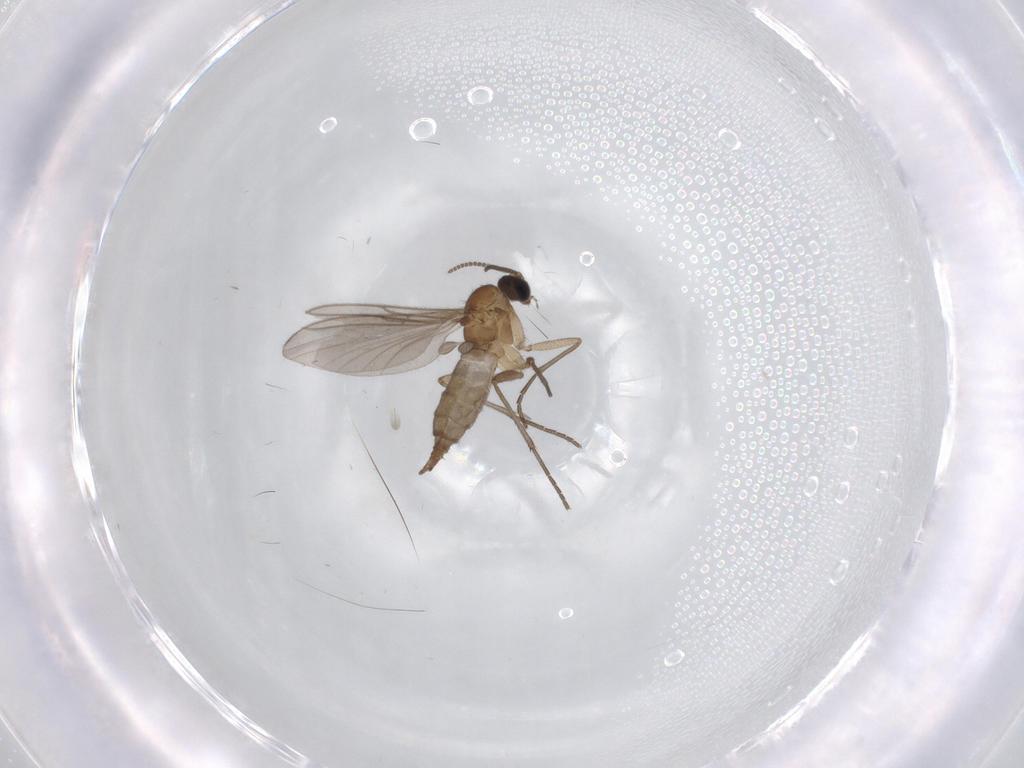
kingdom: Animalia
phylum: Arthropoda
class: Insecta
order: Diptera
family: Sciaridae
